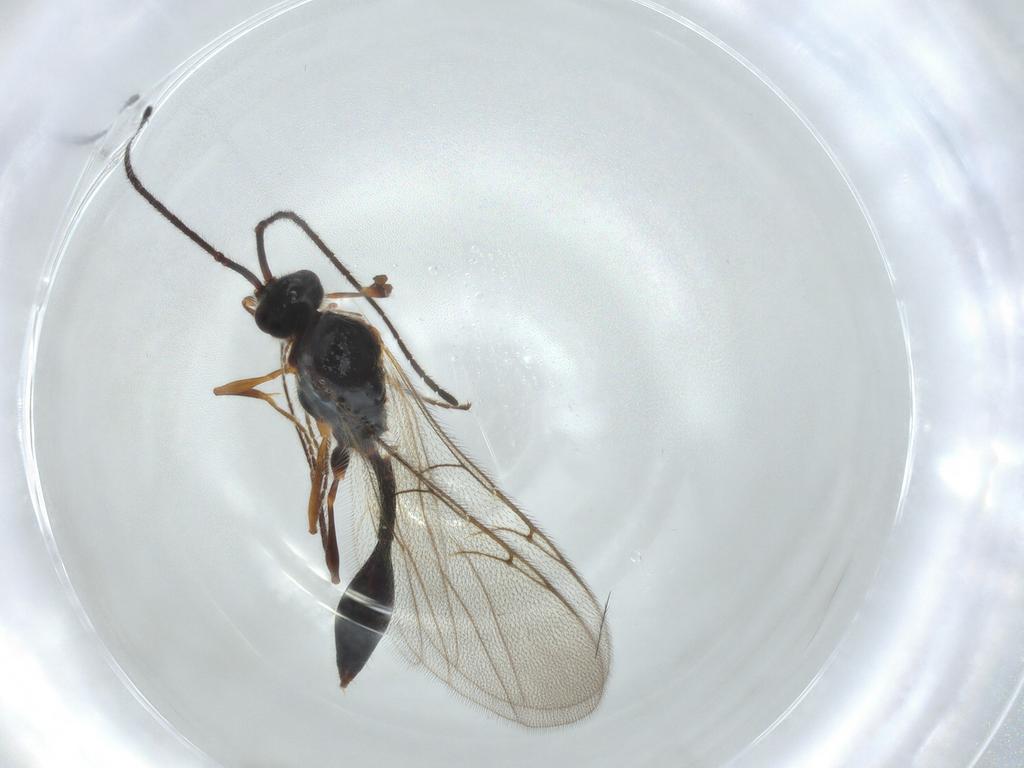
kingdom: Animalia
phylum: Arthropoda
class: Insecta
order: Hymenoptera
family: Diapriidae
